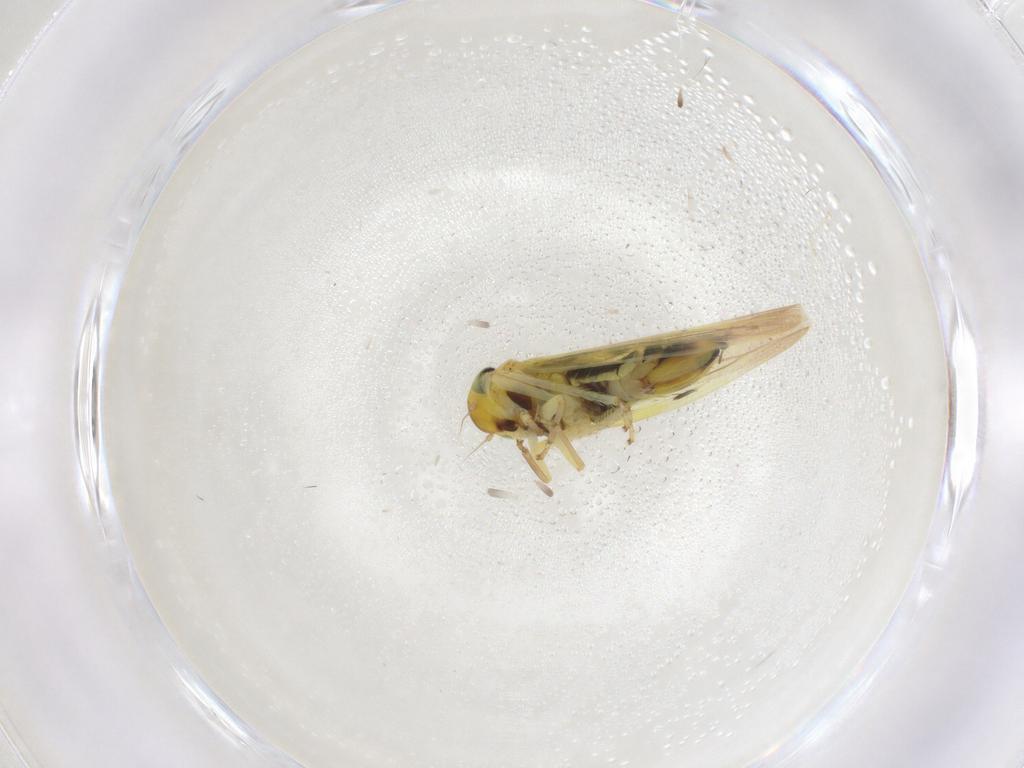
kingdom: Animalia
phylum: Arthropoda
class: Insecta
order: Hemiptera
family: Cicadellidae
